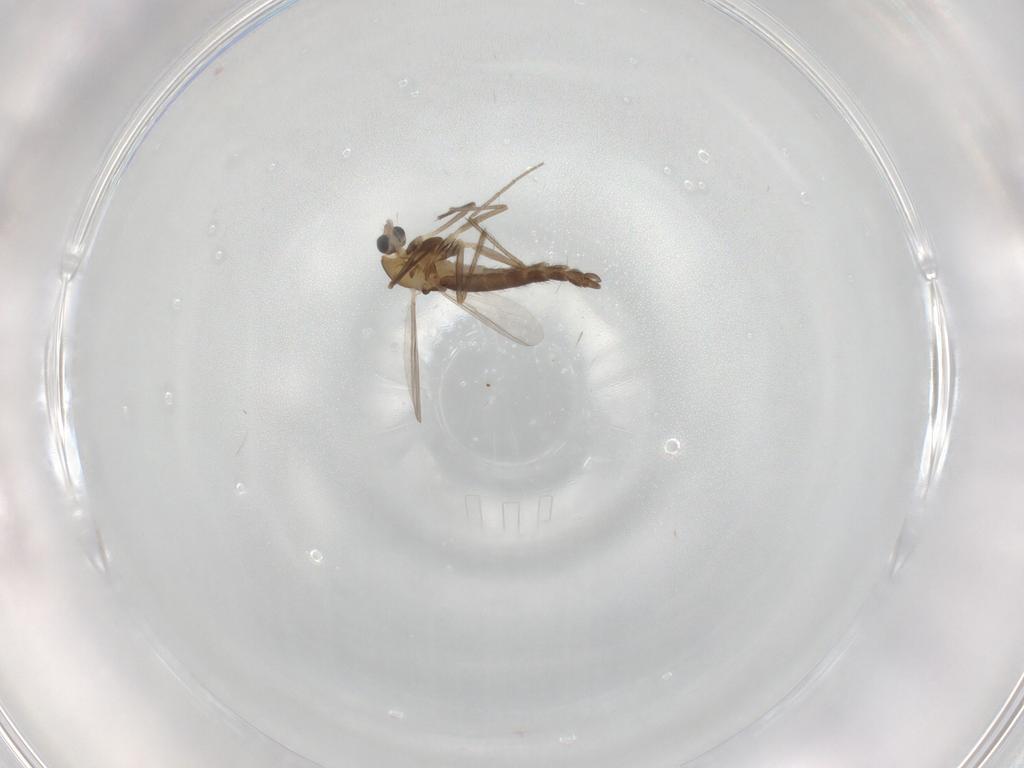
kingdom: Animalia
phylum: Arthropoda
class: Insecta
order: Diptera
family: Chironomidae
